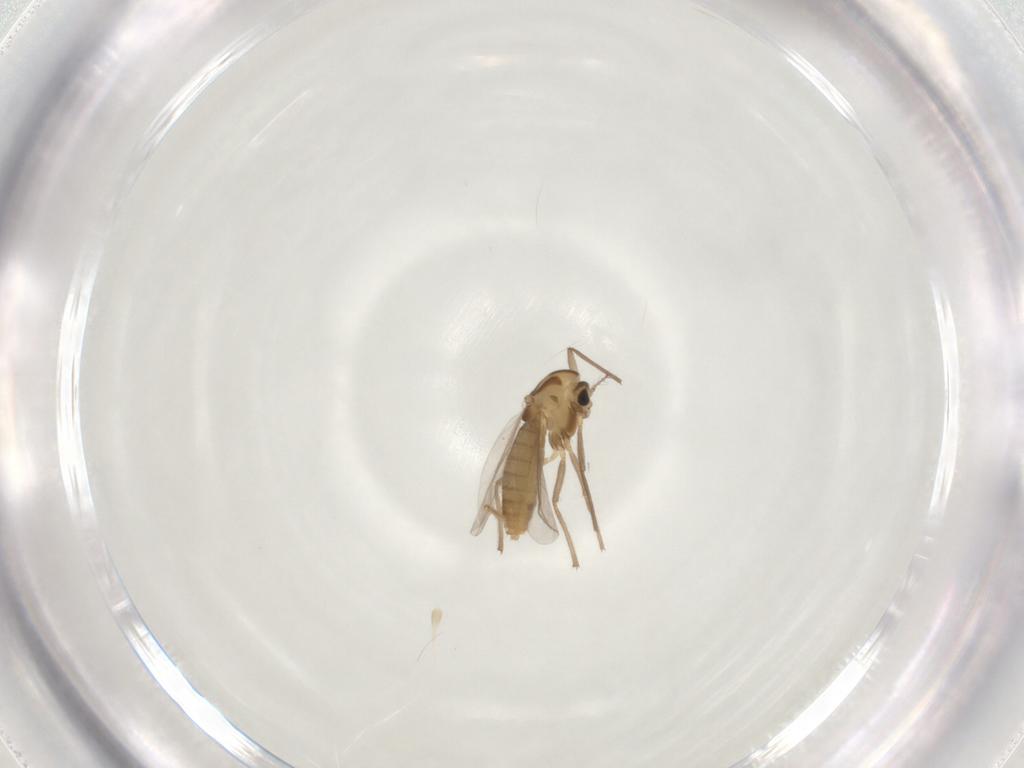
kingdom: Animalia
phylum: Arthropoda
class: Insecta
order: Diptera
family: Chironomidae
